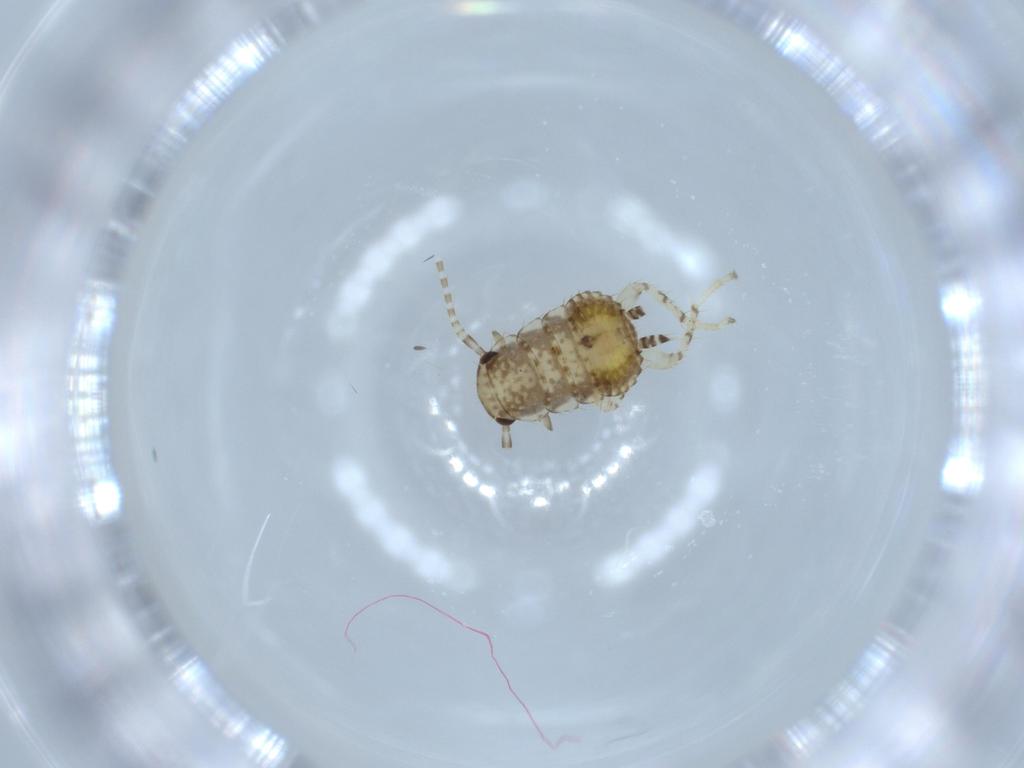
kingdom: Animalia
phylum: Arthropoda
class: Insecta
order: Blattodea
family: Ectobiidae
